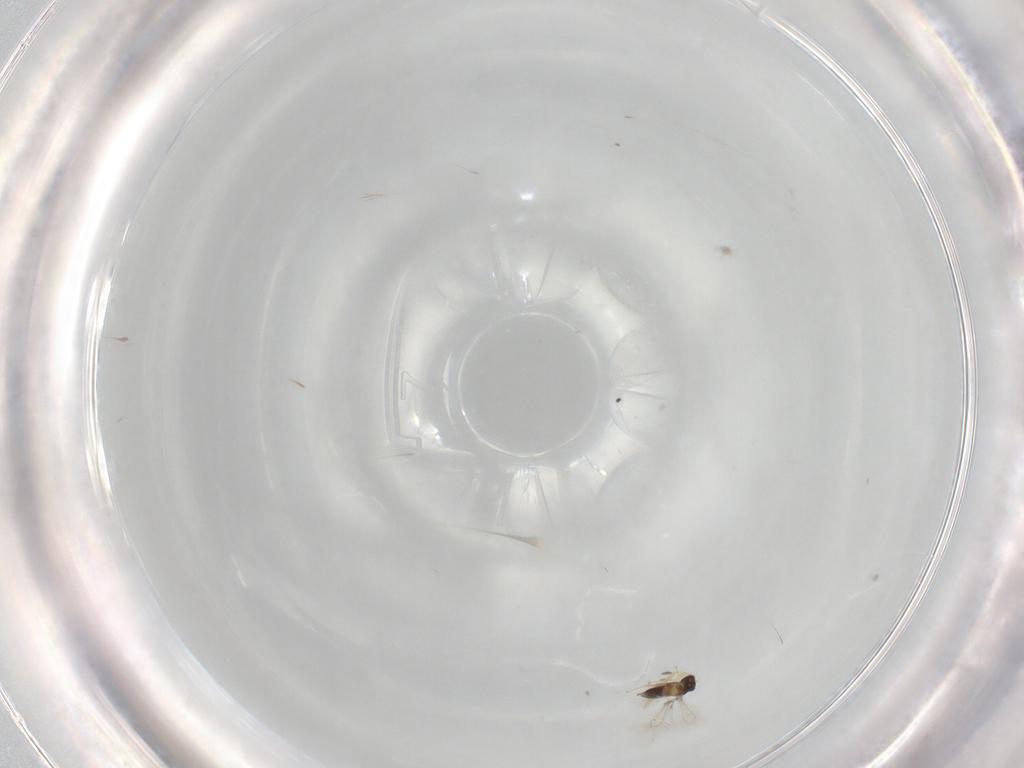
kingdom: Animalia
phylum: Arthropoda
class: Insecta
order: Hymenoptera
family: Mymaridae
